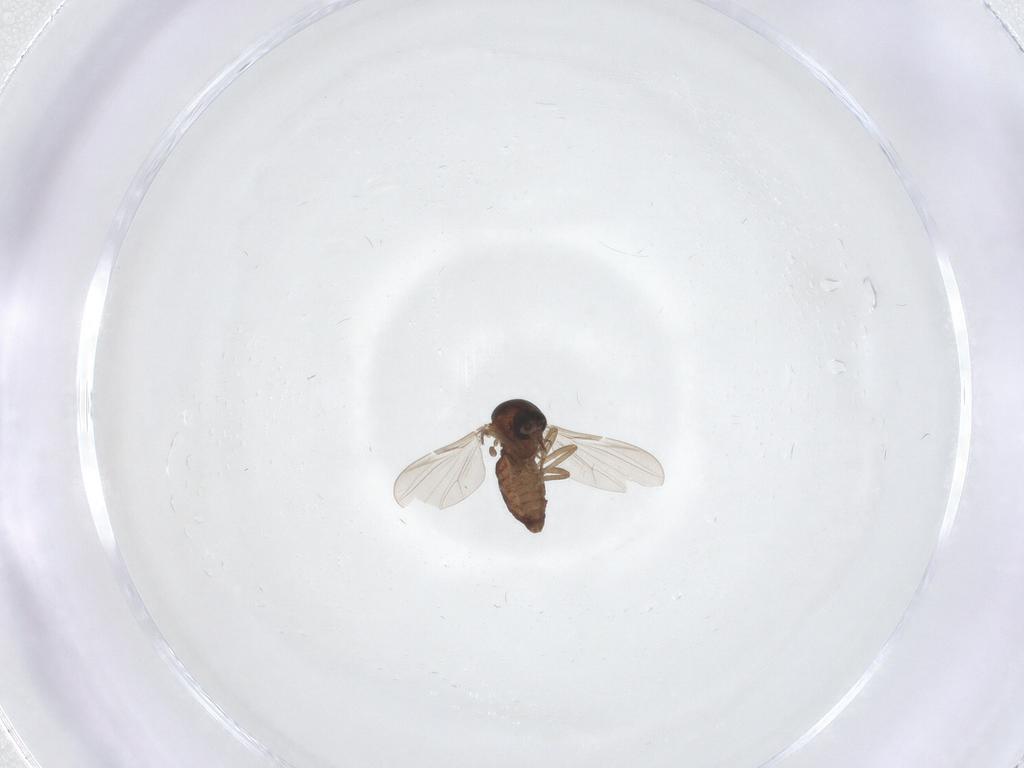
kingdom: Animalia
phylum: Arthropoda
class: Insecta
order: Diptera
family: Ceratopogonidae
